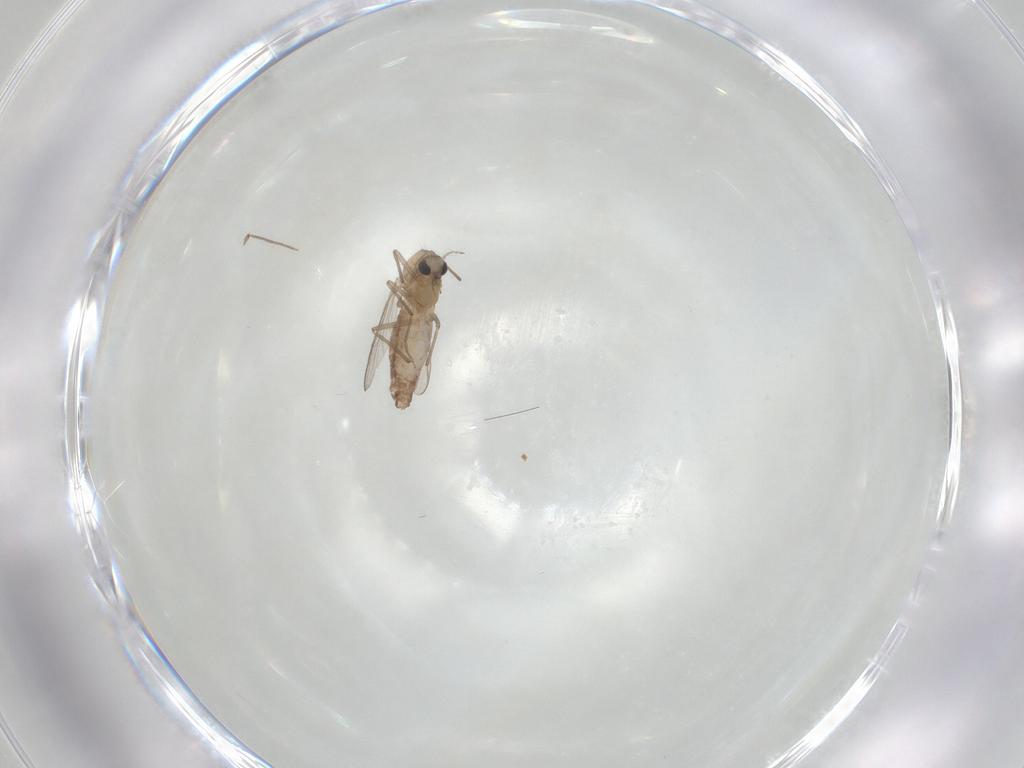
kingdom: Animalia
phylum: Arthropoda
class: Insecta
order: Diptera
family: Chironomidae
